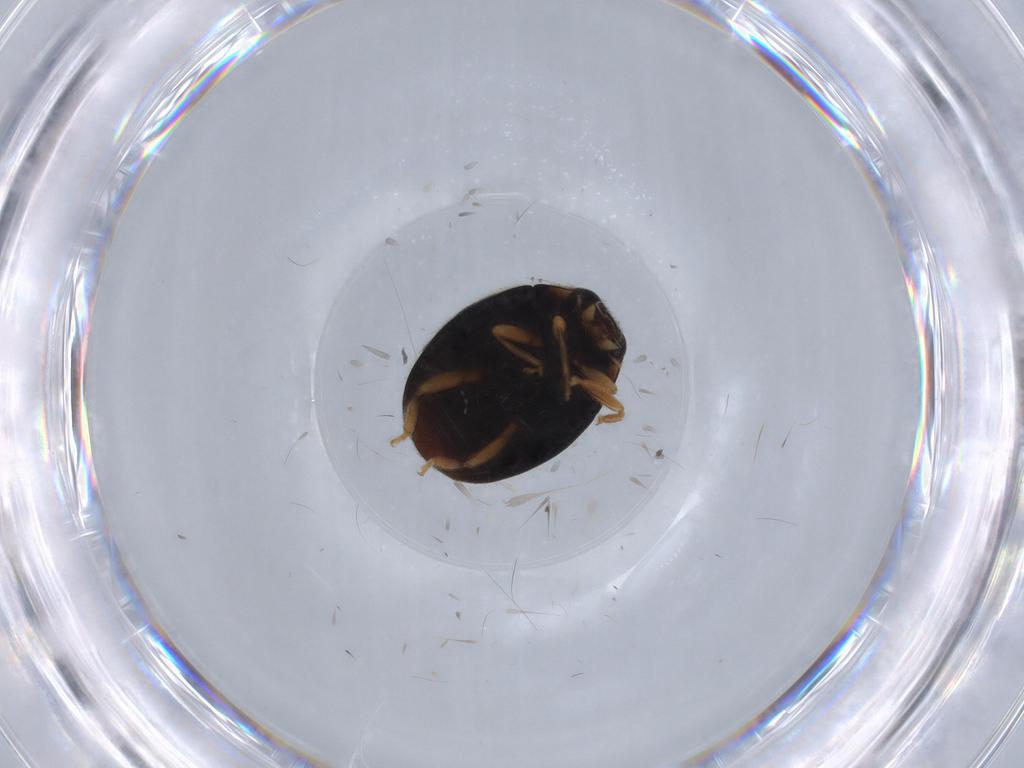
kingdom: Animalia
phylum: Arthropoda
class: Insecta
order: Coleoptera
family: Coccinellidae
